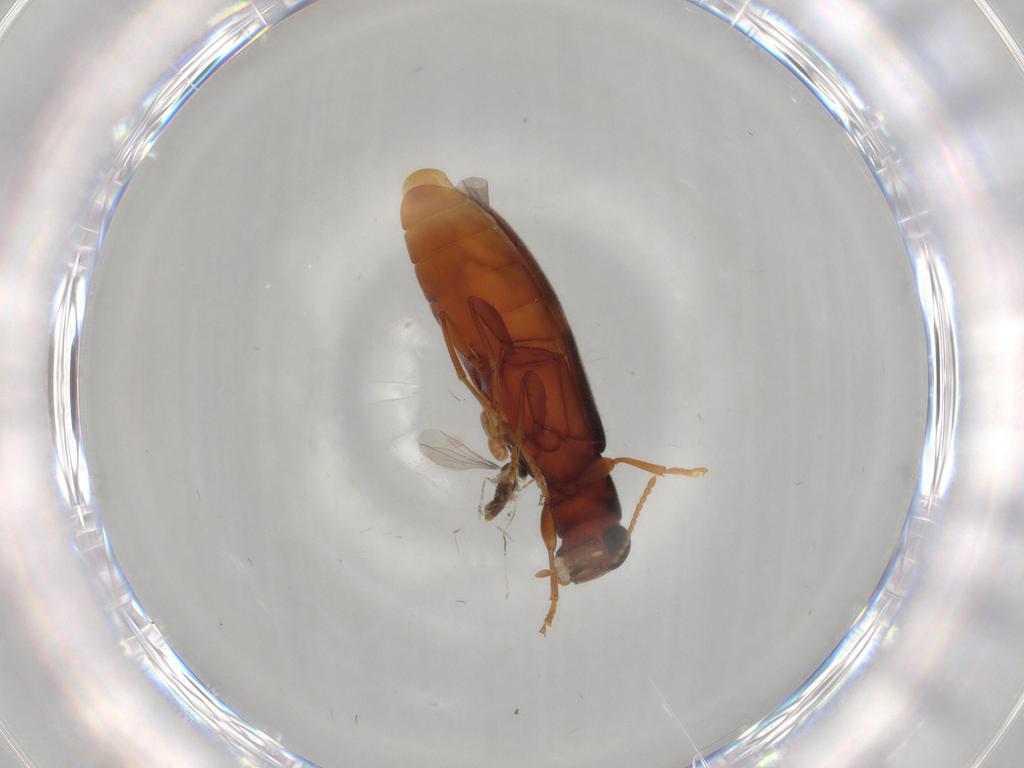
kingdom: Animalia
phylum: Arthropoda
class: Insecta
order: Coleoptera
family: Mycteridae
